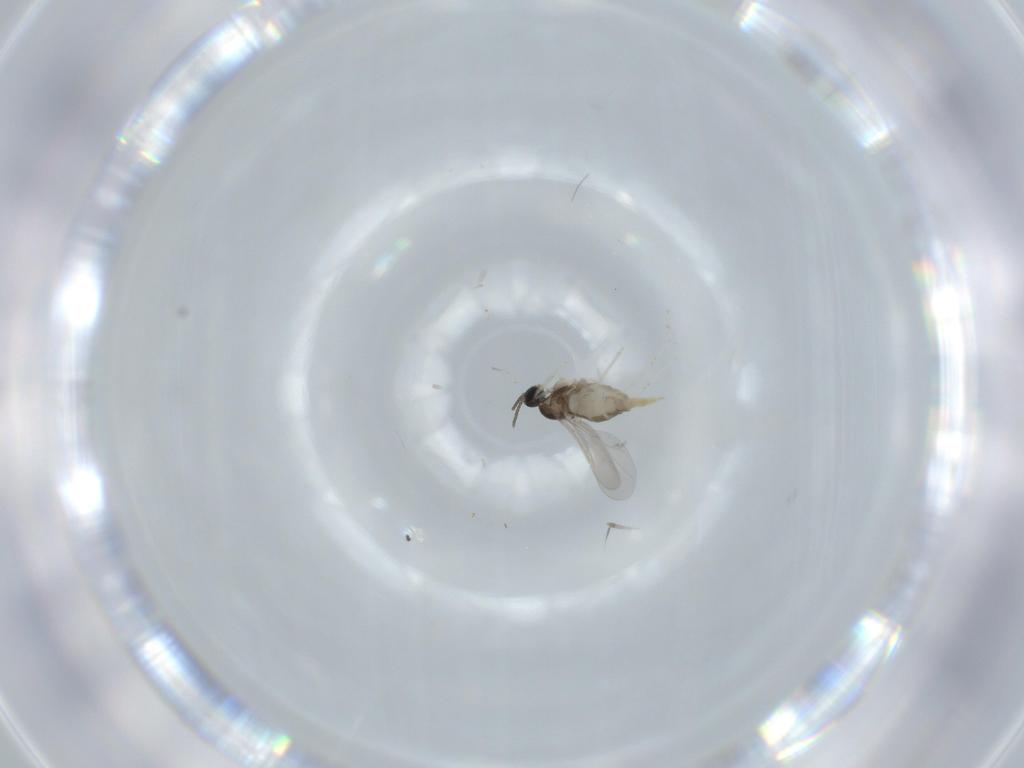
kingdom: Animalia
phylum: Arthropoda
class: Insecta
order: Diptera
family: Cecidomyiidae
